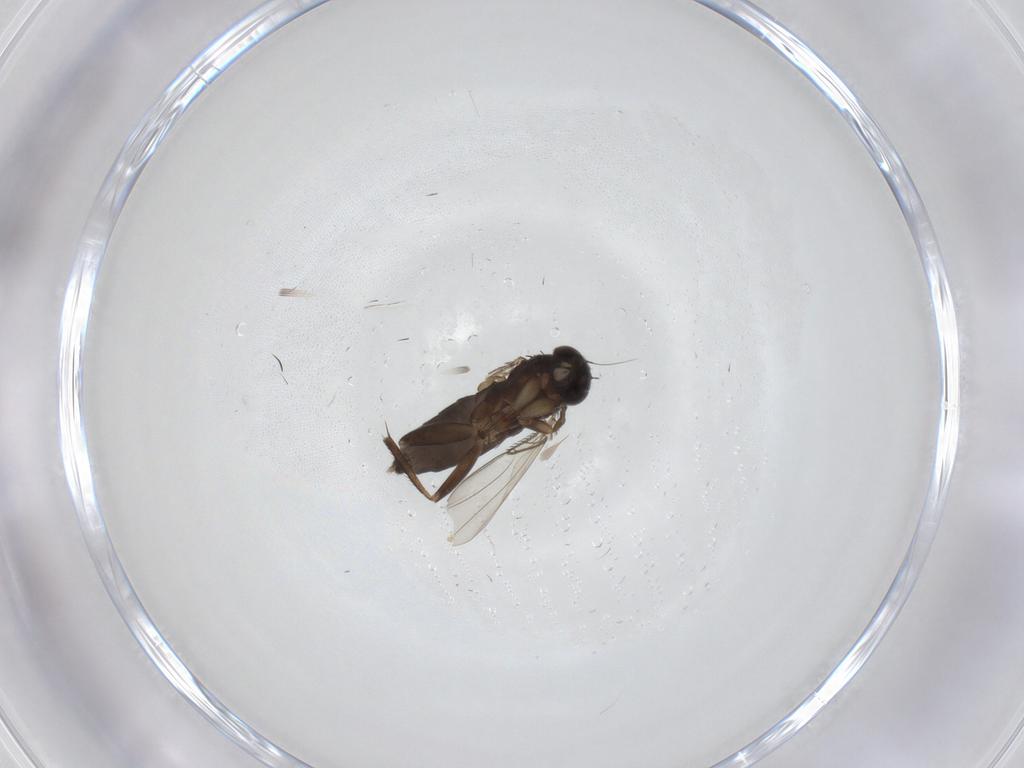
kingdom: Animalia
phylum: Arthropoda
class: Insecta
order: Diptera
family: Phoridae
